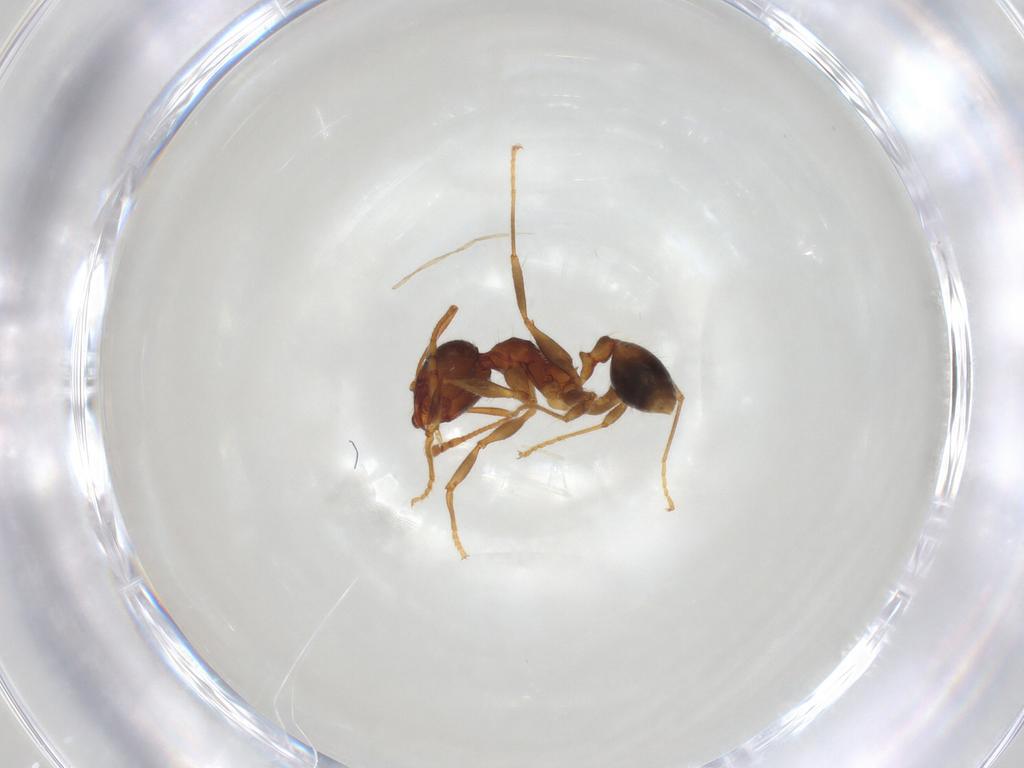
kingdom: Animalia
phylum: Arthropoda
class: Insecta
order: Hymenoptera
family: Formicidae
